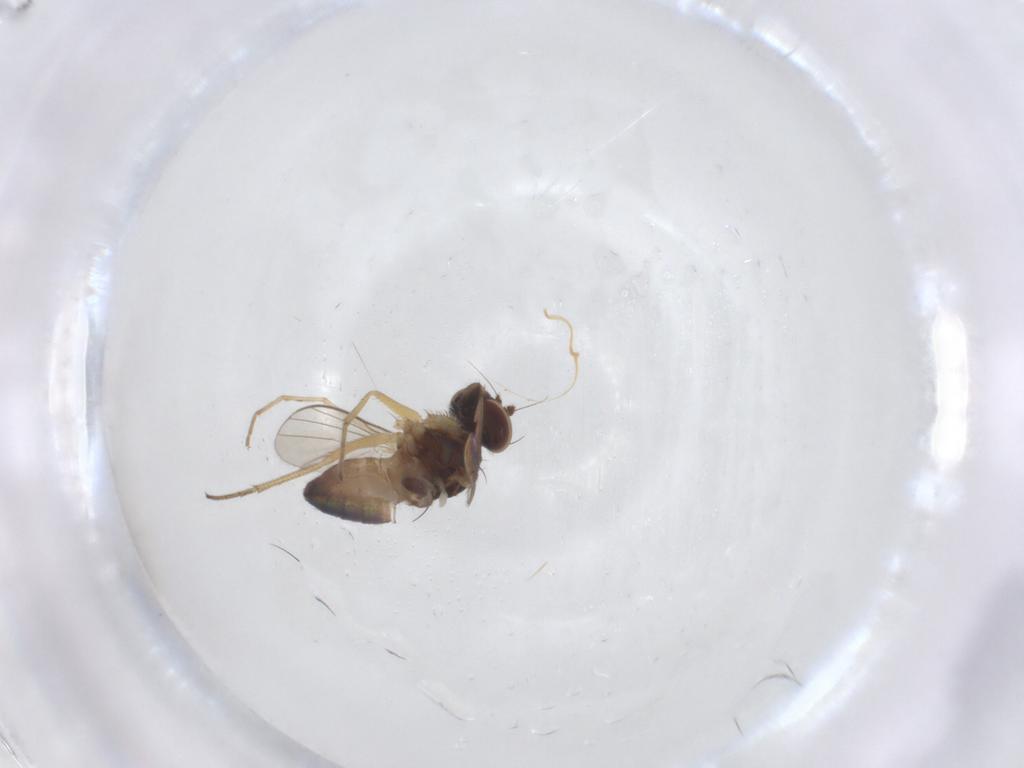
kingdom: Animalia
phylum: Arthropoda
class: Insecta
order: Diptera
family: Dolichopodidae
